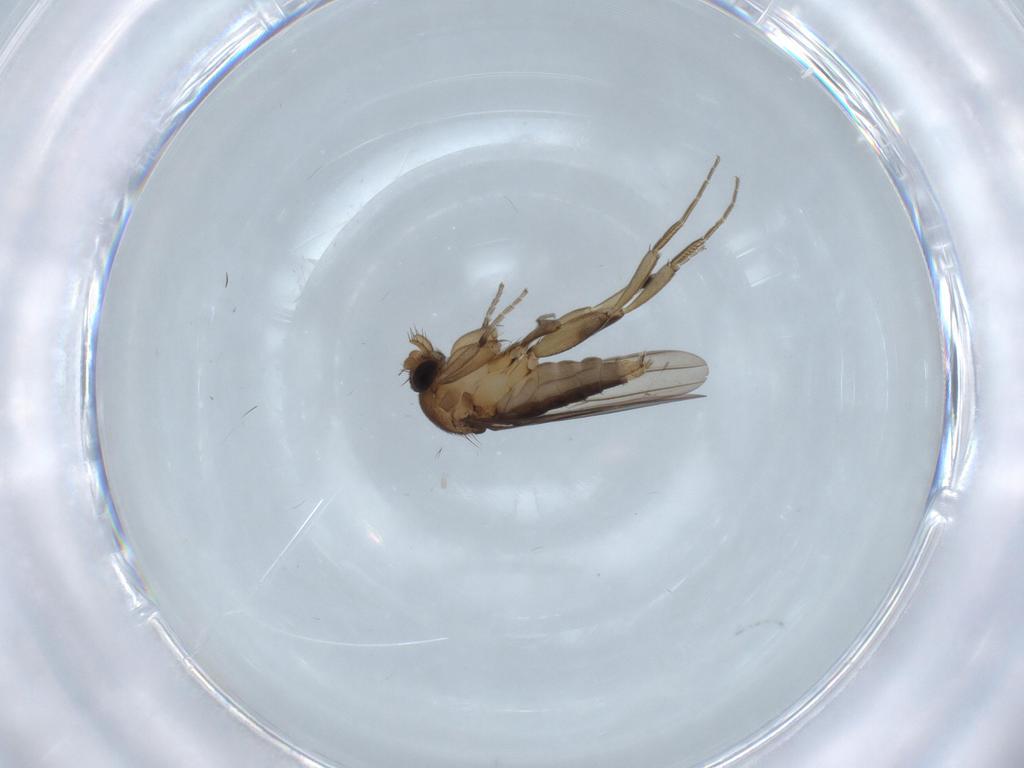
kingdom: Animalia
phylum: Arthropoda
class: Insecta
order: Diptera
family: Phoridae
